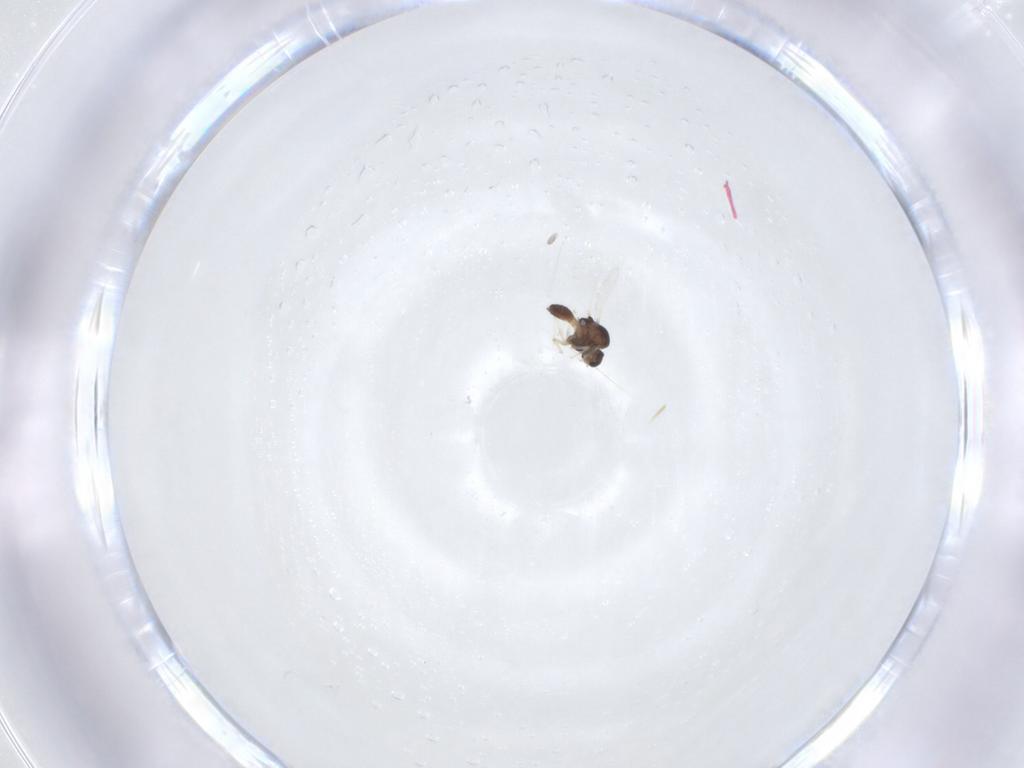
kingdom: Animalia
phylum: Arthropoda
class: Insecta
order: Diptera
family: Chironomidae
